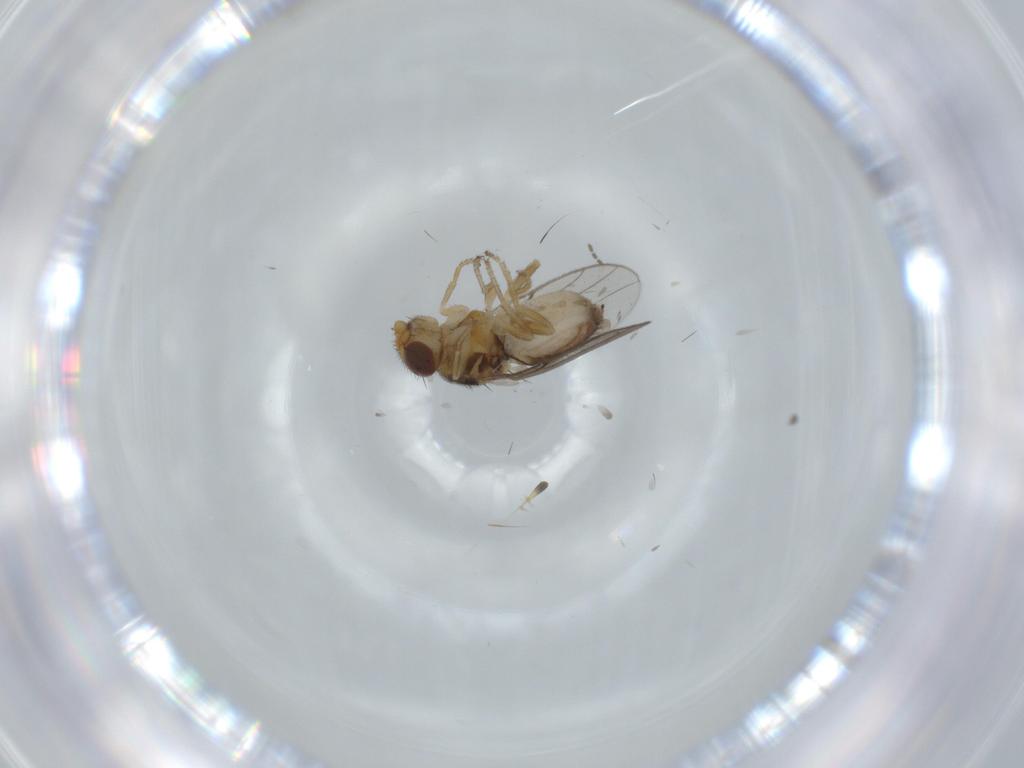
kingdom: Animalia
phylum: Arthropoda
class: Insecta
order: Diptera
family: Chloropidae
